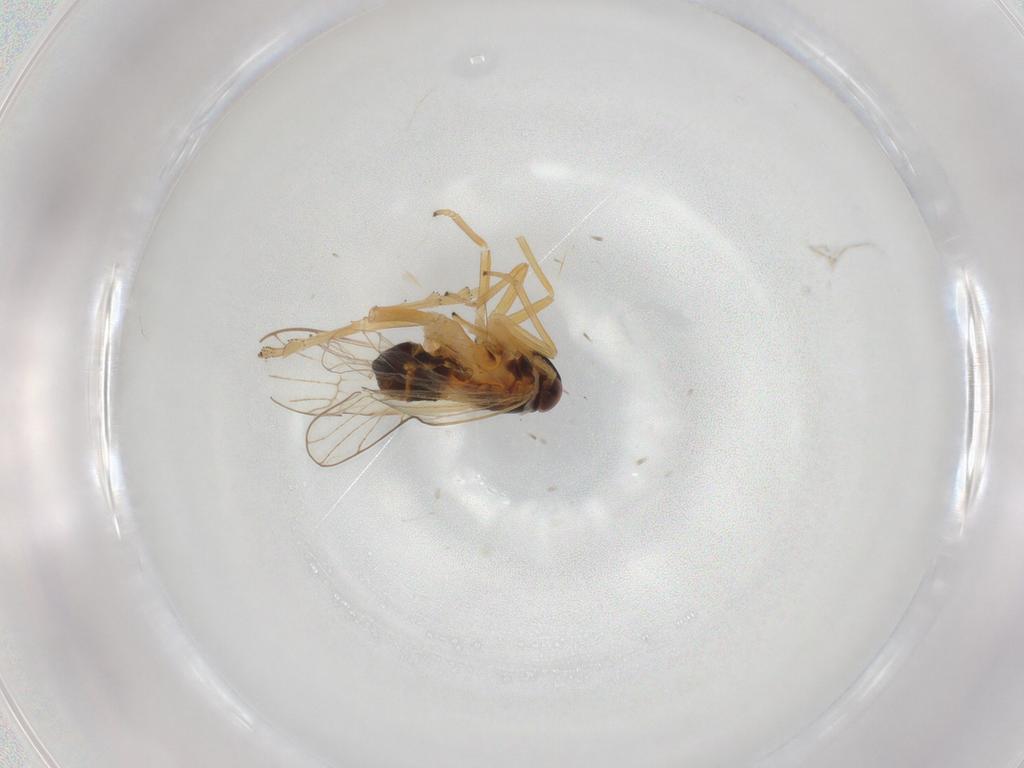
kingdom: Animalia
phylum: Arthropoda
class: Insecta
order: Hemiptera
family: Delphacidae
